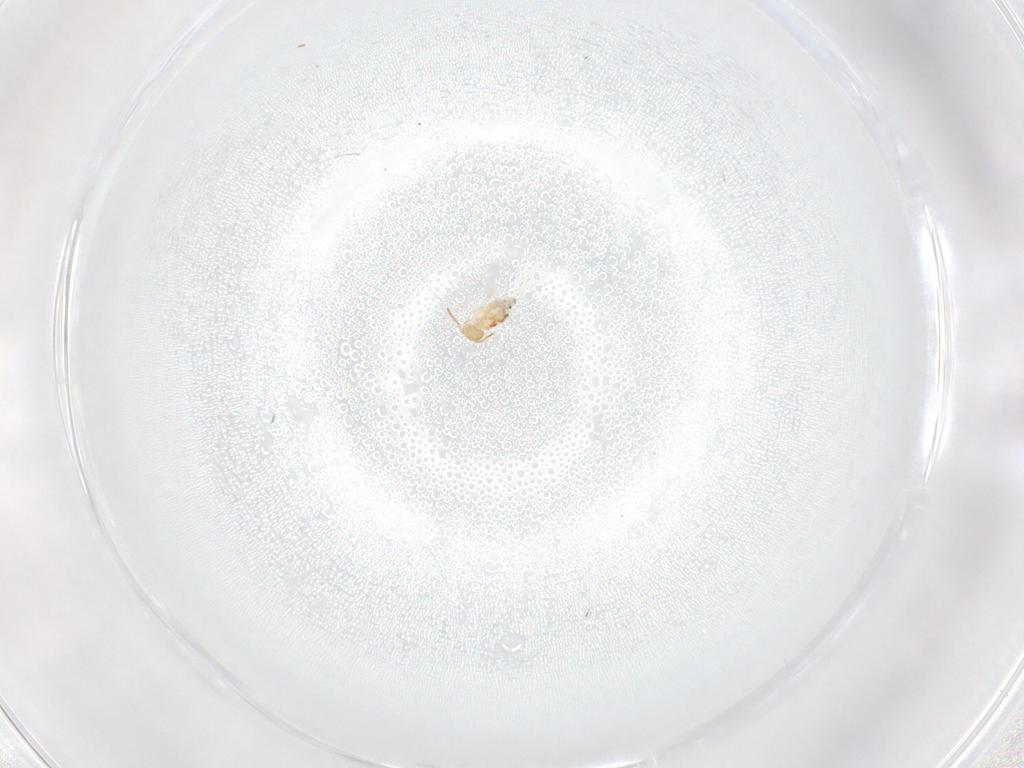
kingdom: Animalia
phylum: Arthropoda
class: Collembola
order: Symphypleona
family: Bourletiellidae
